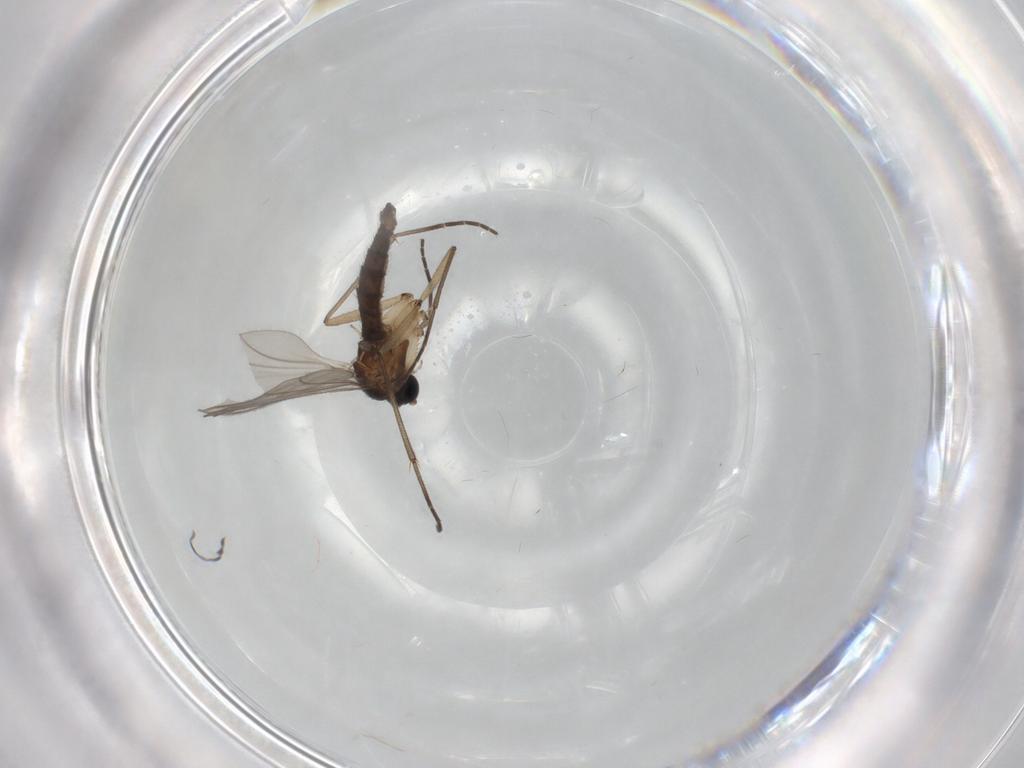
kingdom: Animalia
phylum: Arthropoda
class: Insecta
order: Diptera
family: Sciaridae
